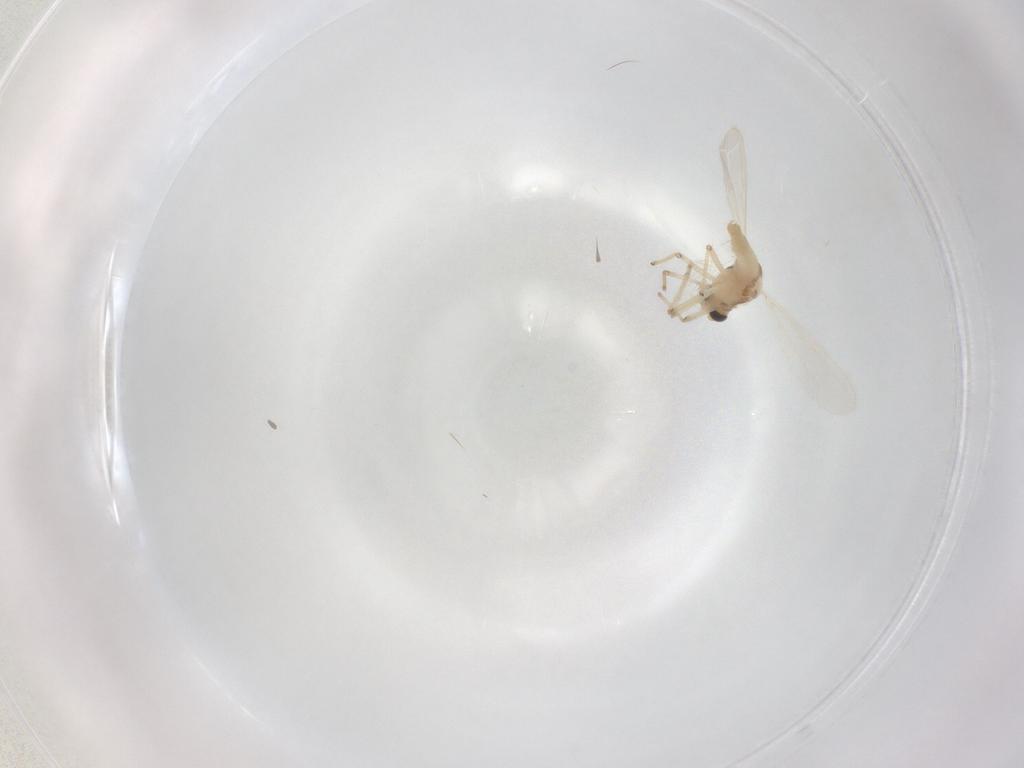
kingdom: Animalia
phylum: Arthropoda
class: Insecta
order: Diptera
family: Chironomidae
